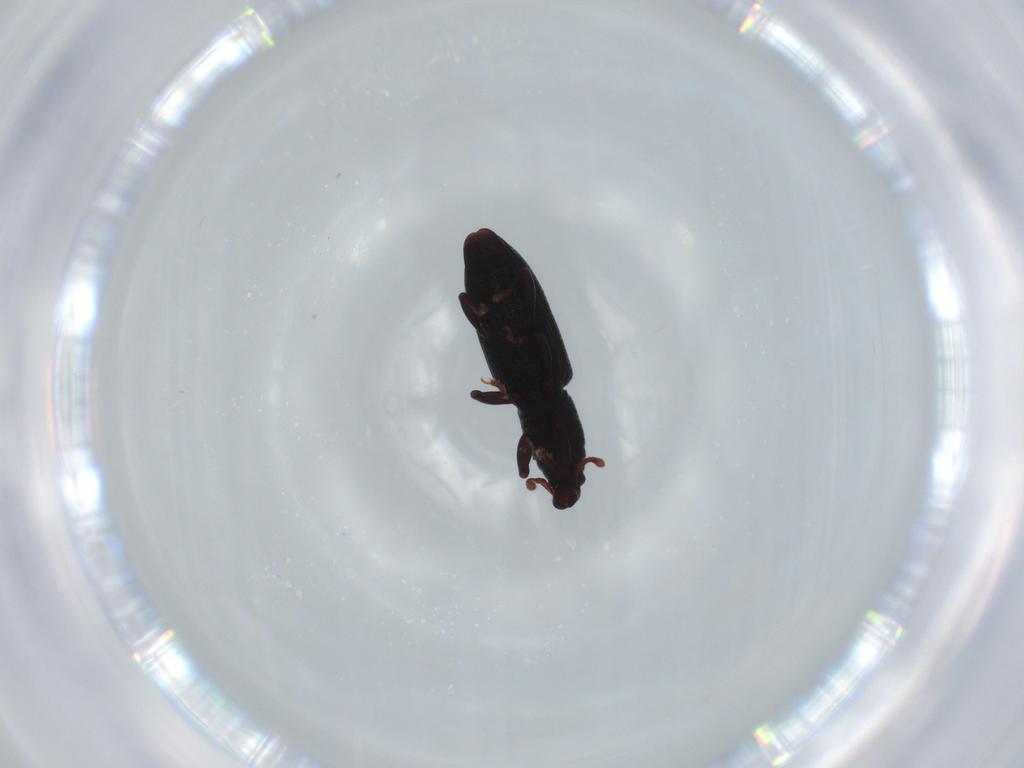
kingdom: Animalia
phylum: Arthropoda
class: Insecta
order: Coleoptera
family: Curculionidae
